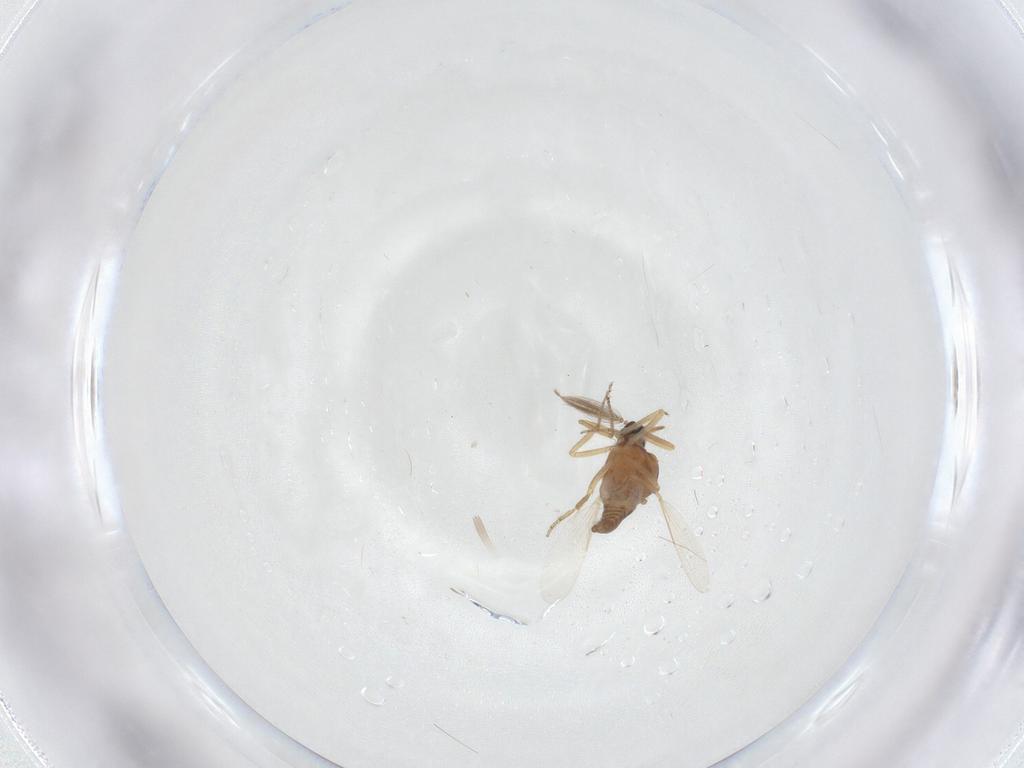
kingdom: Animalia
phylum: Arthropoda
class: Insecta
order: Diptera
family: Ceratopogonidae
